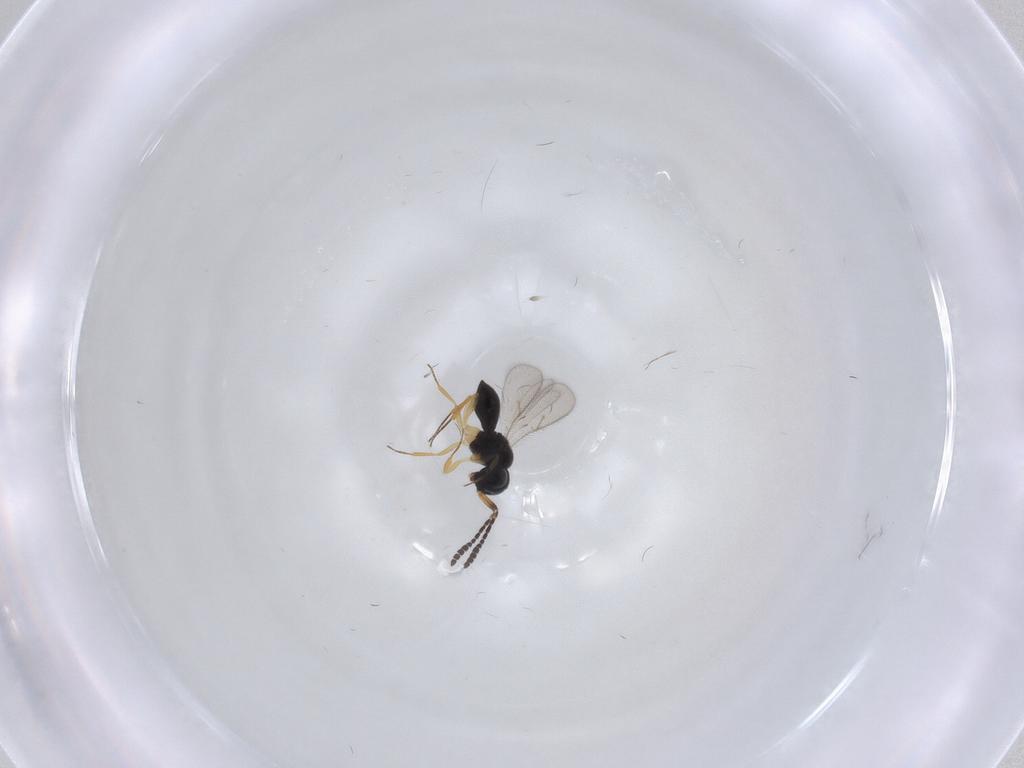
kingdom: Animalia
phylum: Arthropoda
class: Insecta
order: Hymenoptera
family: Scelionidae
